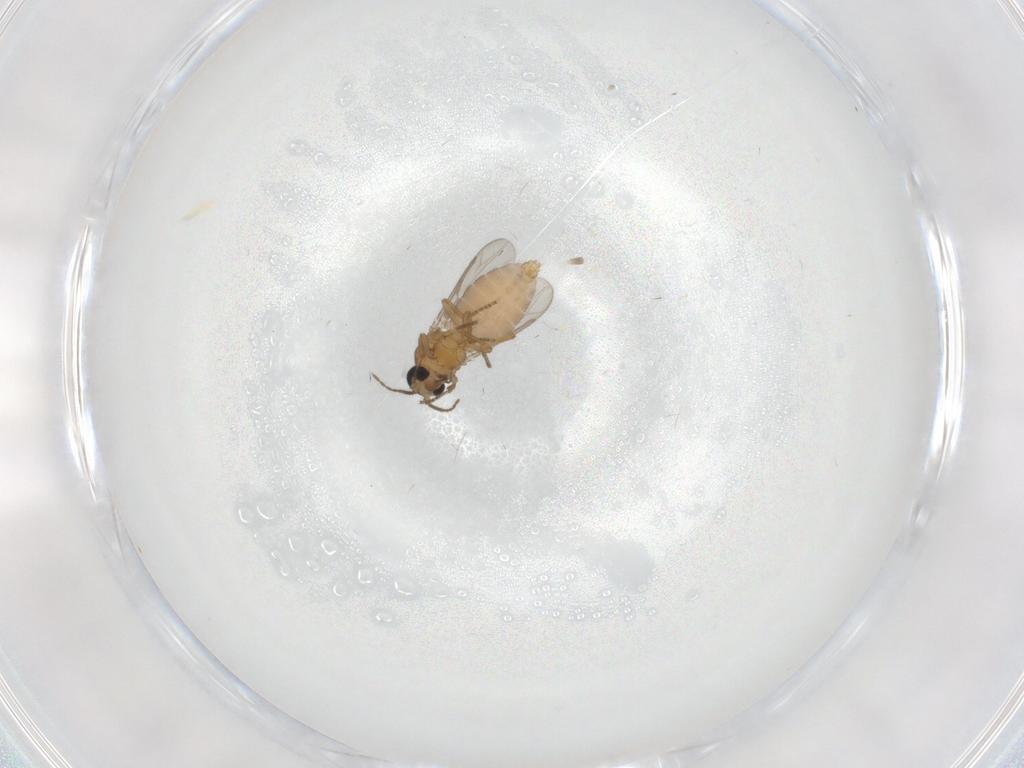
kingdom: Animalia
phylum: Arthropoda
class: Insecta
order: Diptera
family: Ceratopogonidae
